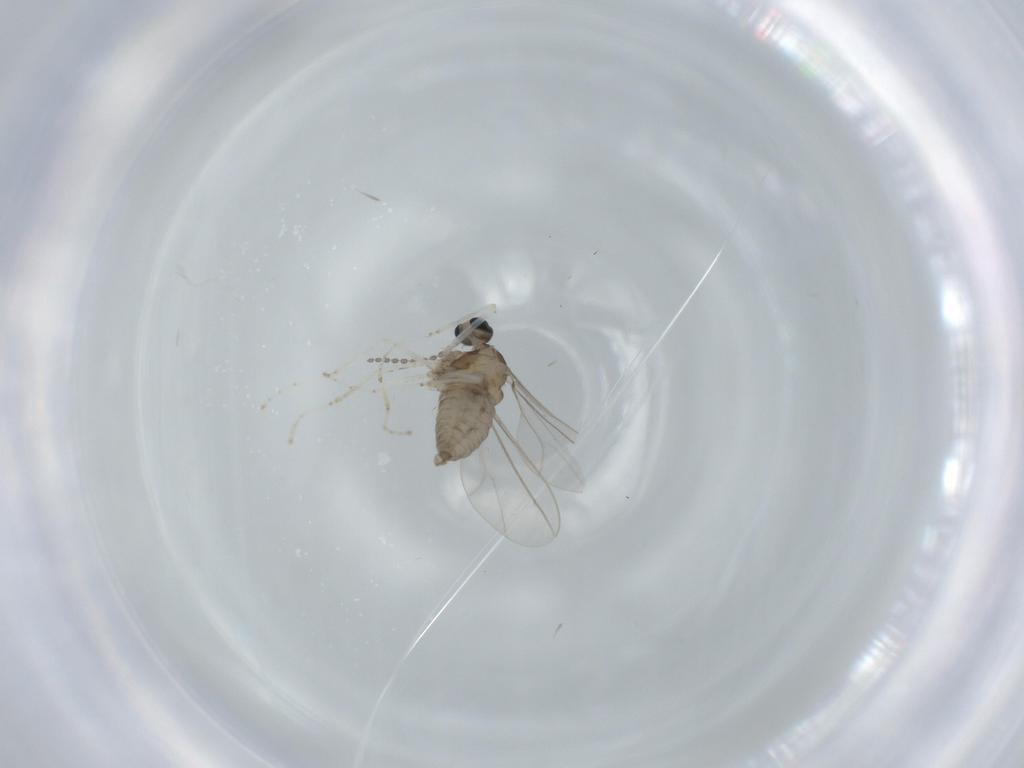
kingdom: Animalia
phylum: Arthropoda
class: Insecta
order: Diptera
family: Cecidomyiidae
